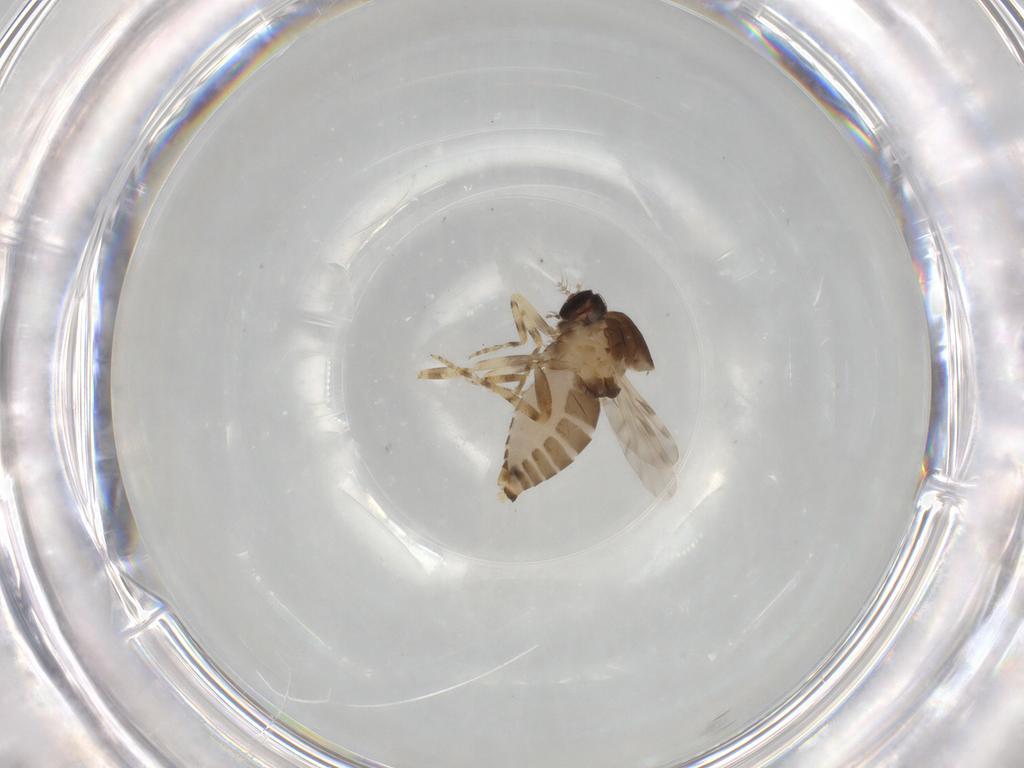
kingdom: Animalia
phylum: Arthropoda
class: Insecta
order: Diptera
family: Ceratopogonidae
